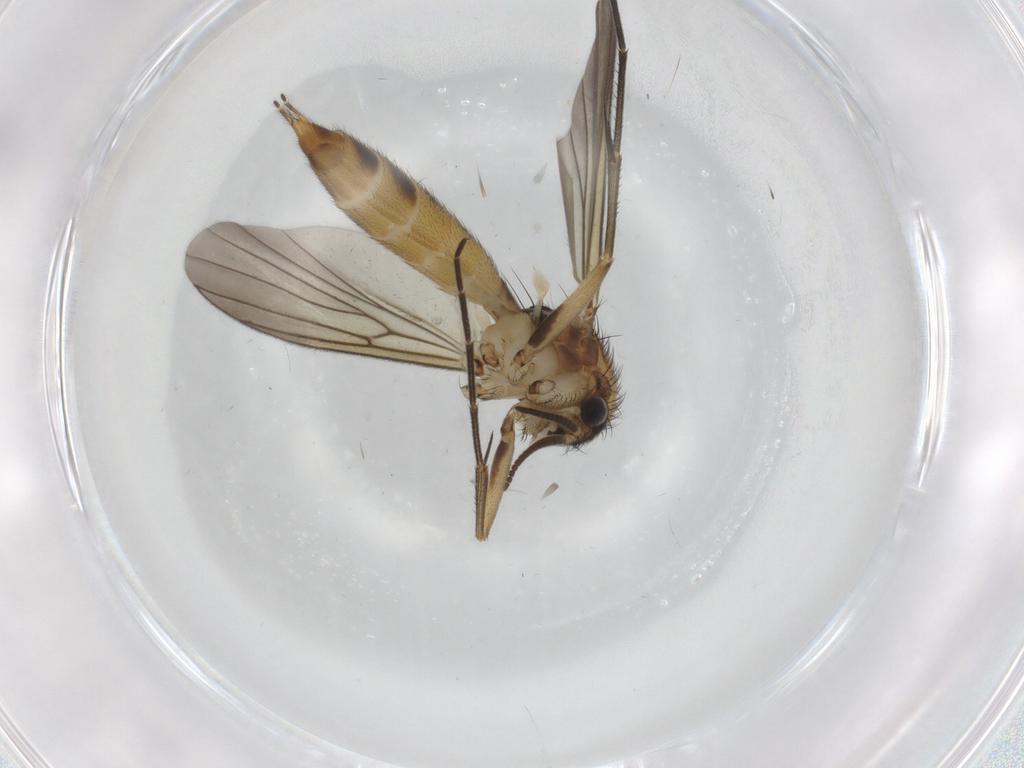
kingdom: Animalia
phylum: Arthropoda
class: Insecta
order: Diptera
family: Mycetophilidae
